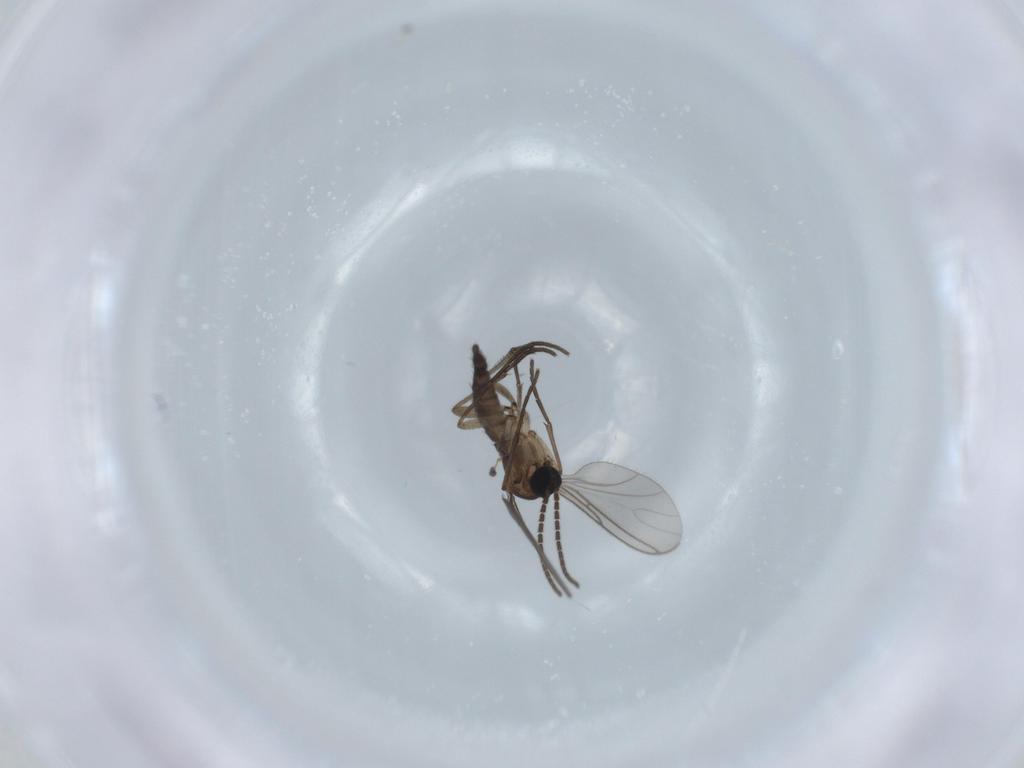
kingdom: Animalia
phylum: Arthropoda
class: Insecta
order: Diptera
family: Sciaridae
